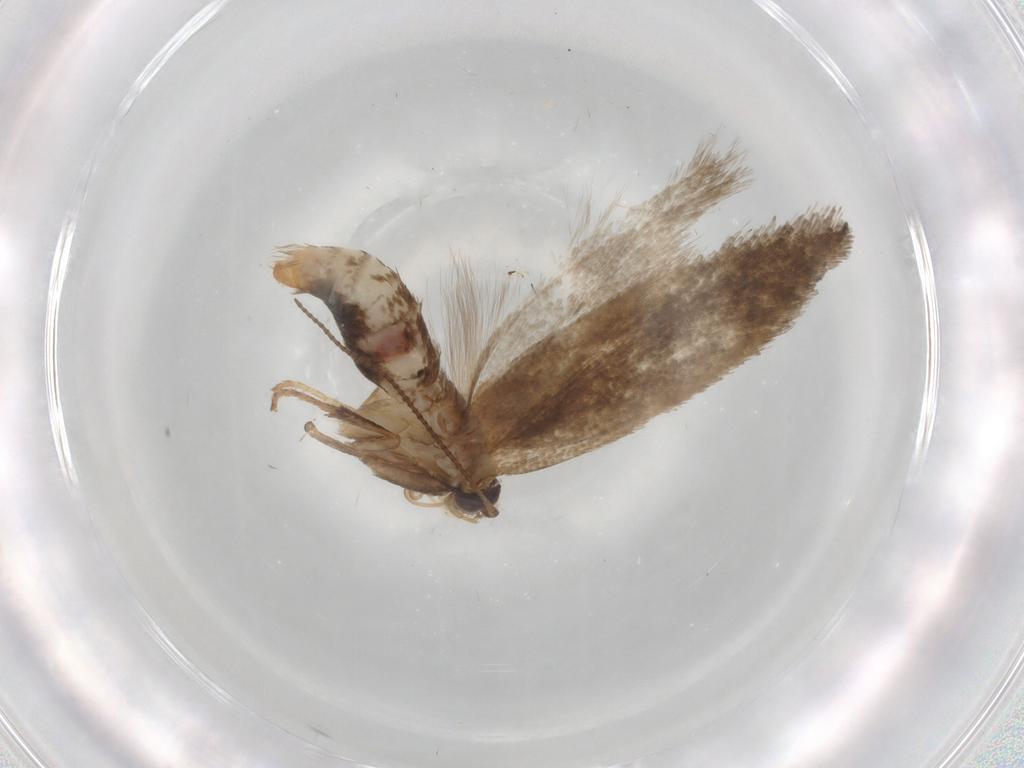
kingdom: Animalia
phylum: Arthropoda
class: Insecta
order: Lepidoptera
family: Nepticulidae
